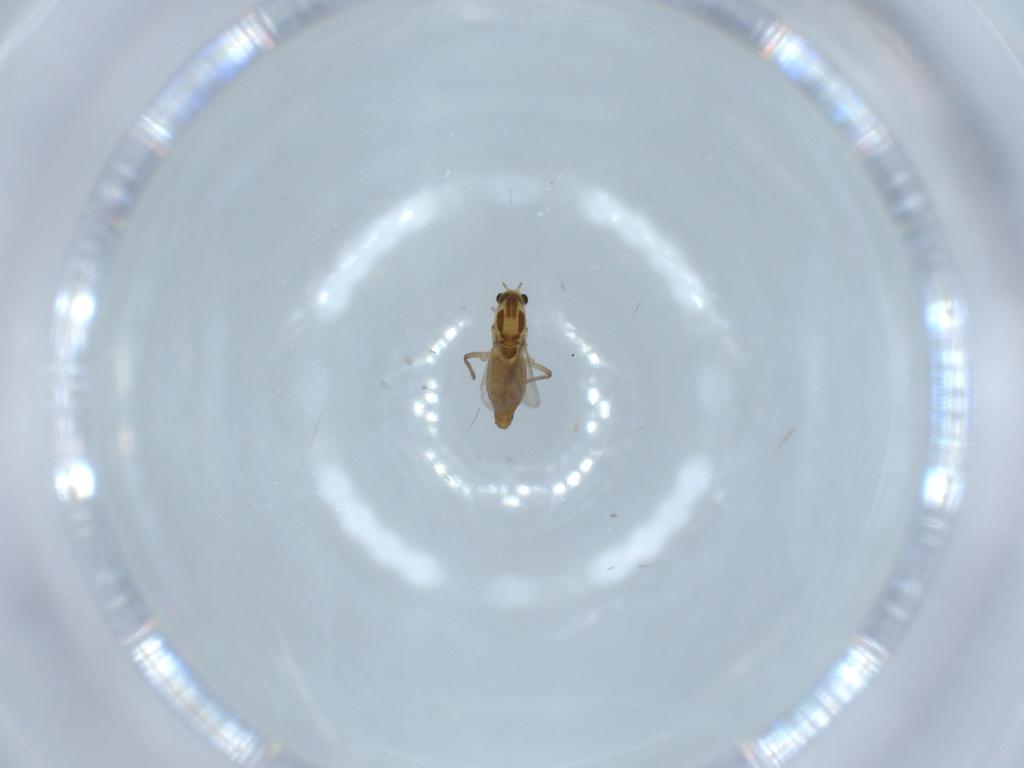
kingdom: Animalia
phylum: Arthropoda
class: Insecta
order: Diptera
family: Chironomidae
